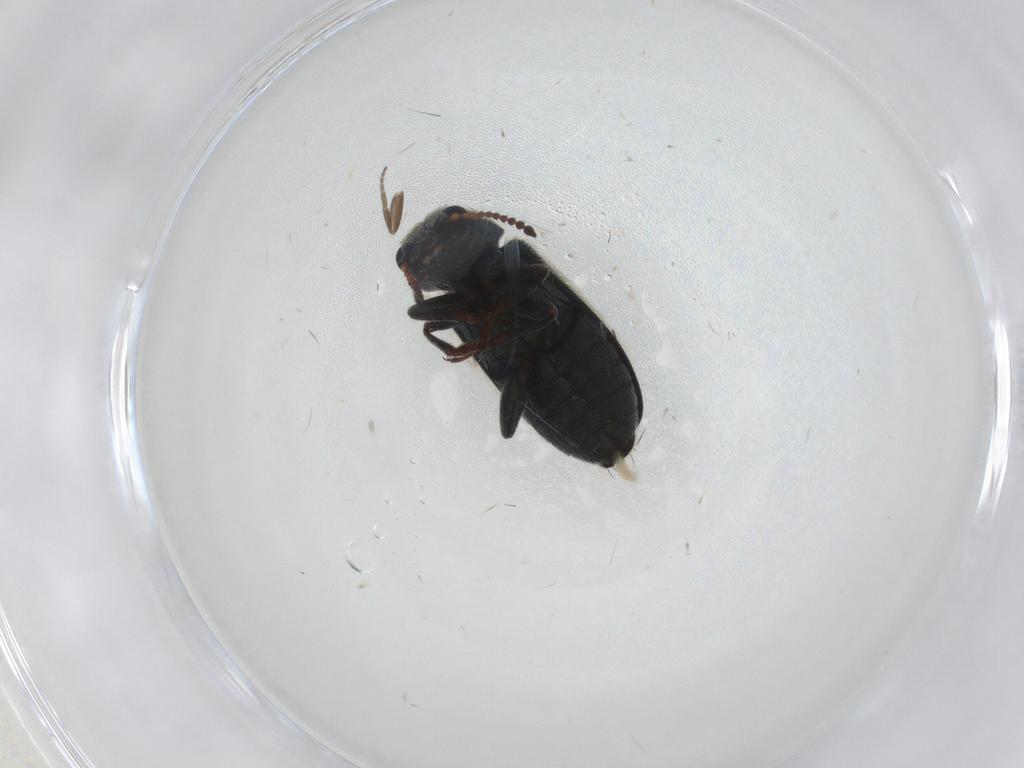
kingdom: Animalia
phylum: Arthropoda
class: Insecta
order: Coleoptera
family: Melyridae
